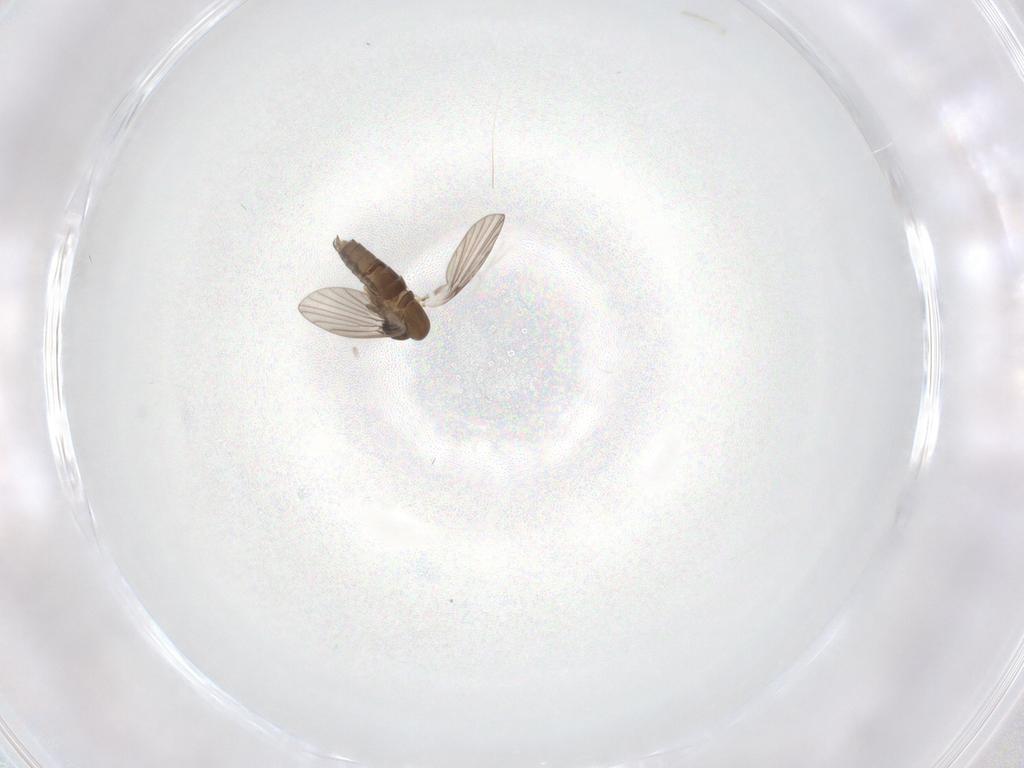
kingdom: Animalia
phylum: Arthropoda
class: Insecta
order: Diptera
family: Sciaridae
